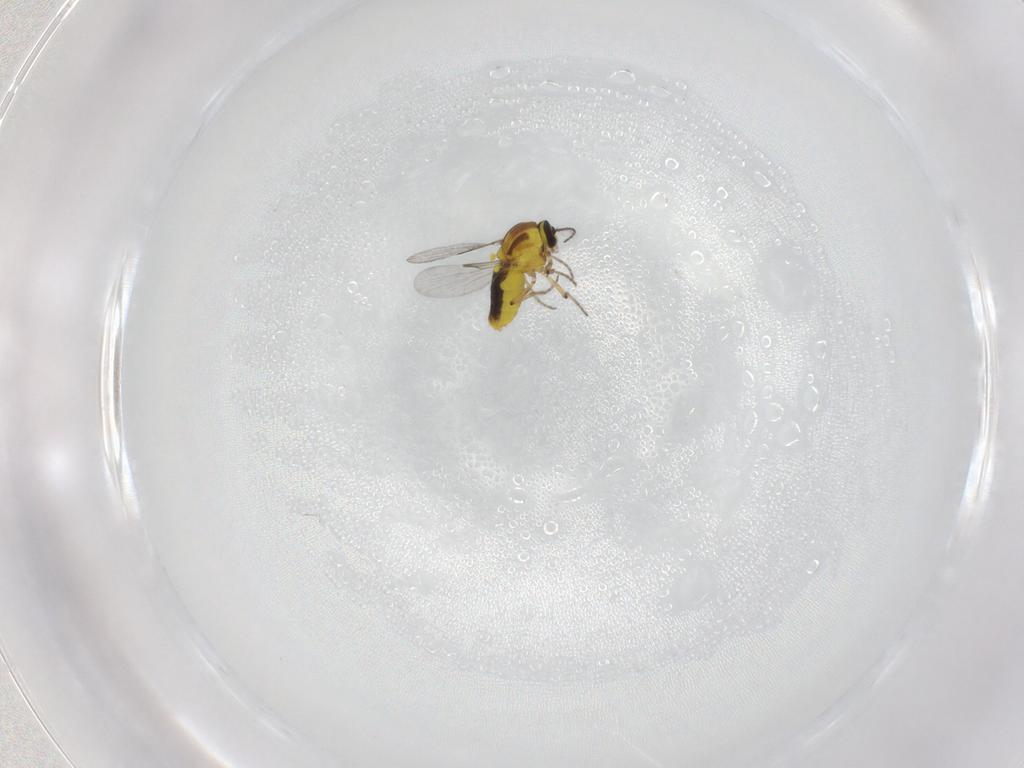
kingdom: Animalia
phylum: Arthropoda
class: Insecta
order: Diptera
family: Ceratopogonidae
